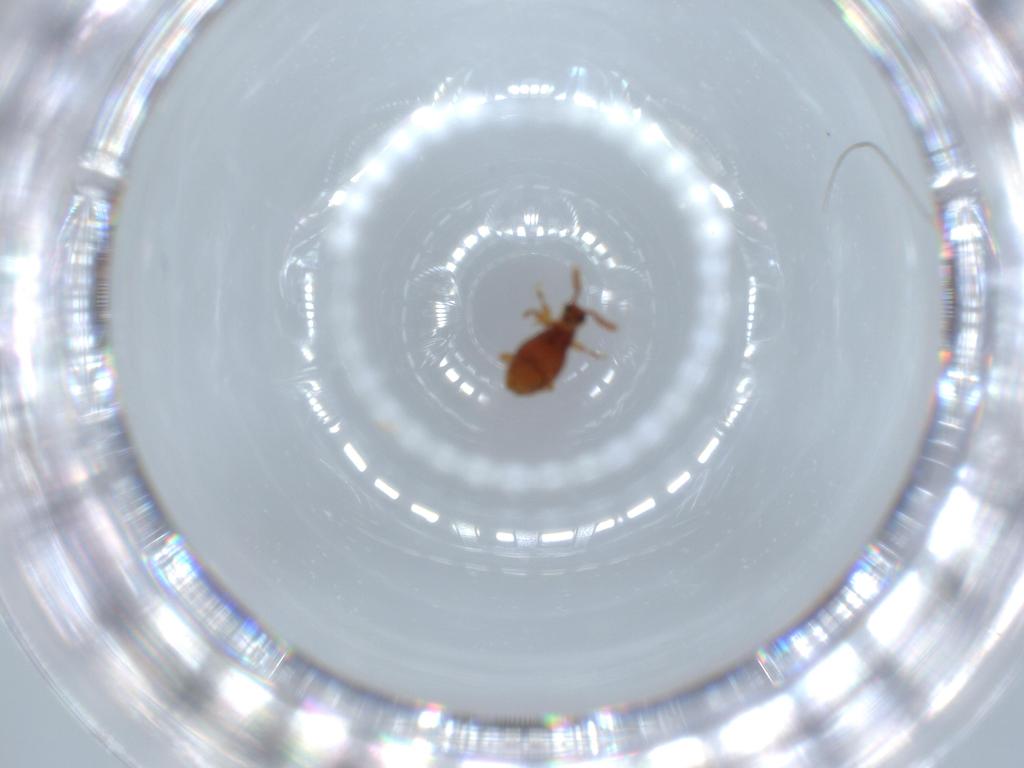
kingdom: Animalia
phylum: Arthropoda
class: Insecta
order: Coleoptera
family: Staphylinidae
